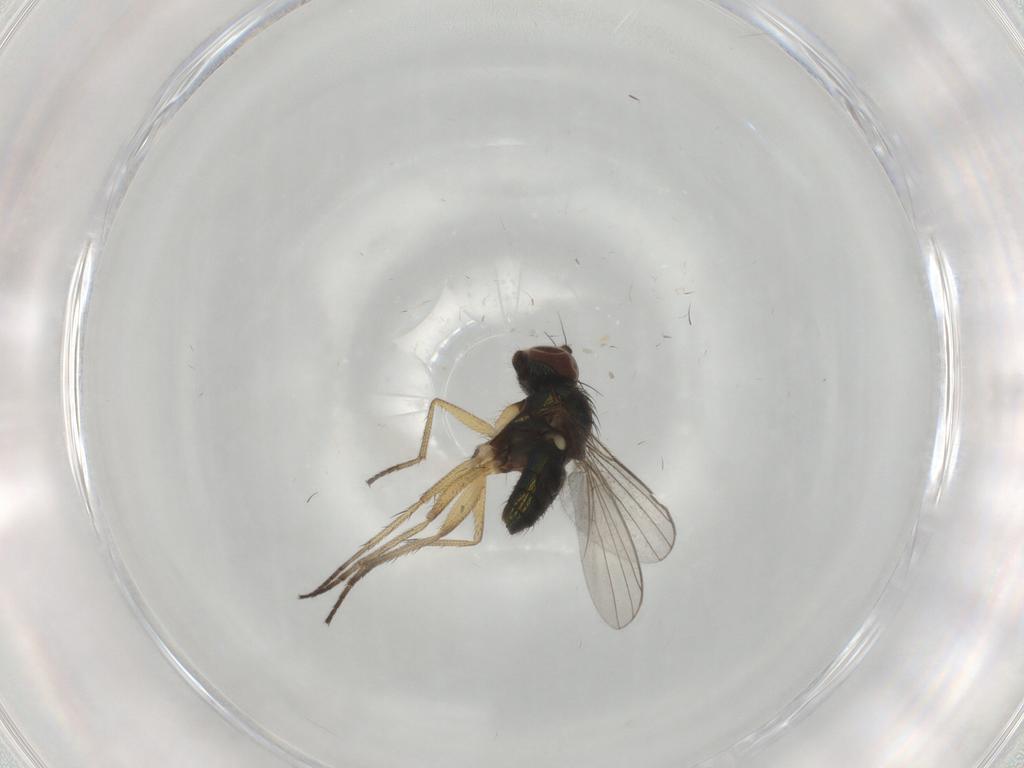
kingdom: Animalia
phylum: Arthropoda
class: Insecta
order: Diptera
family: Dolichopodidae
